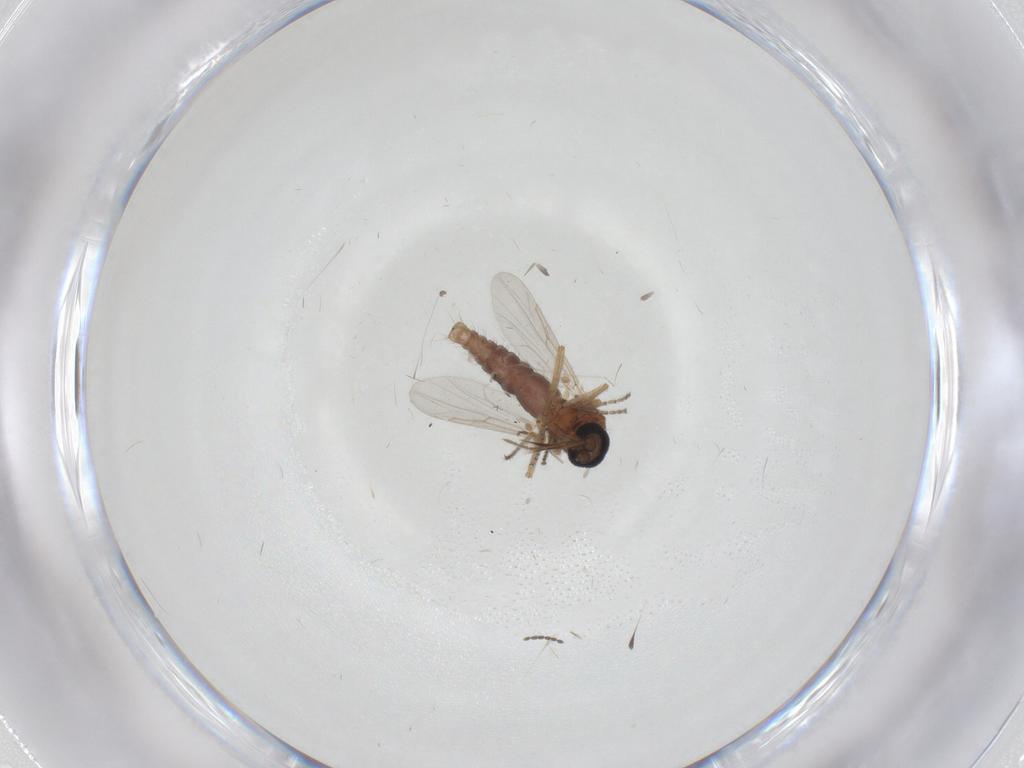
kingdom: Animalia
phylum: Arthropoda
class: Insecta
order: Diptera
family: Ceratopogonidae
